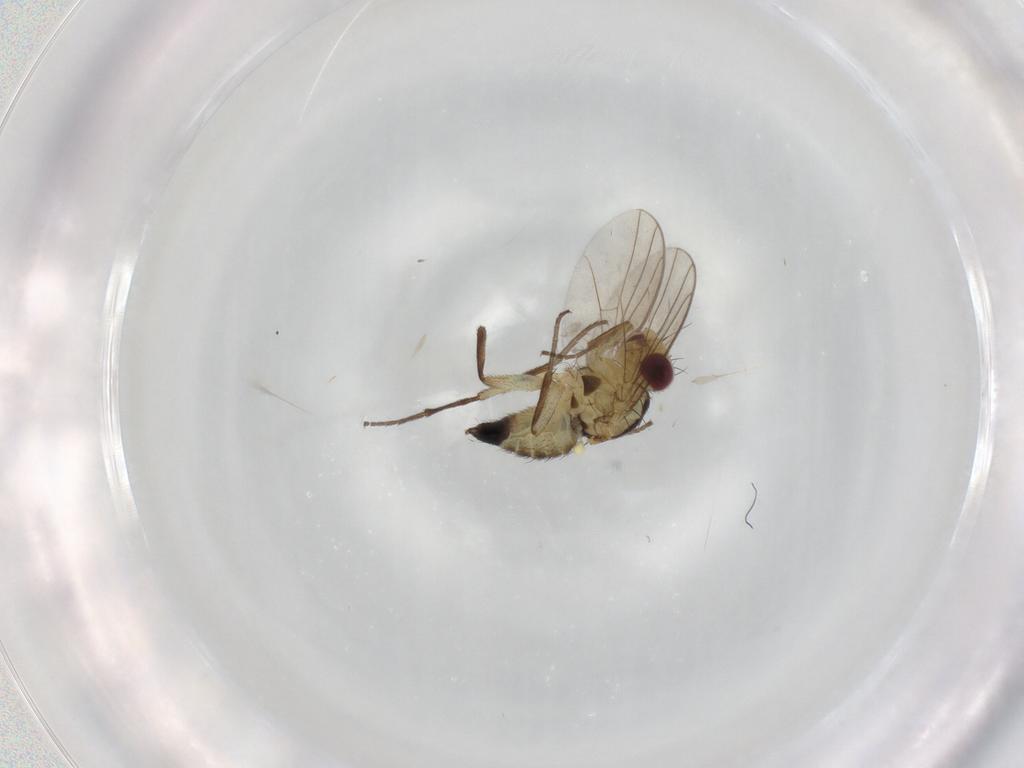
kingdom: Animalia
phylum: Arthropoda
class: Insecta
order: Diptera
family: Agromyzidae
